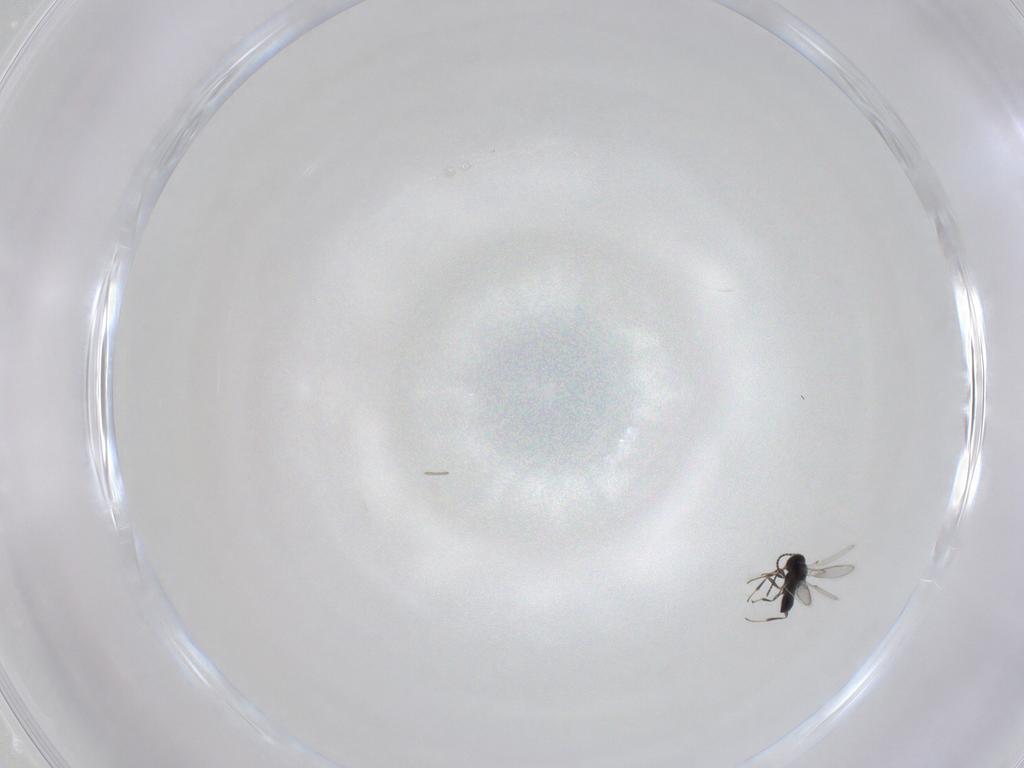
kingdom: Animalia
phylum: Arthropoda
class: Insecta
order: Hymenoptera
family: Scelionidae
